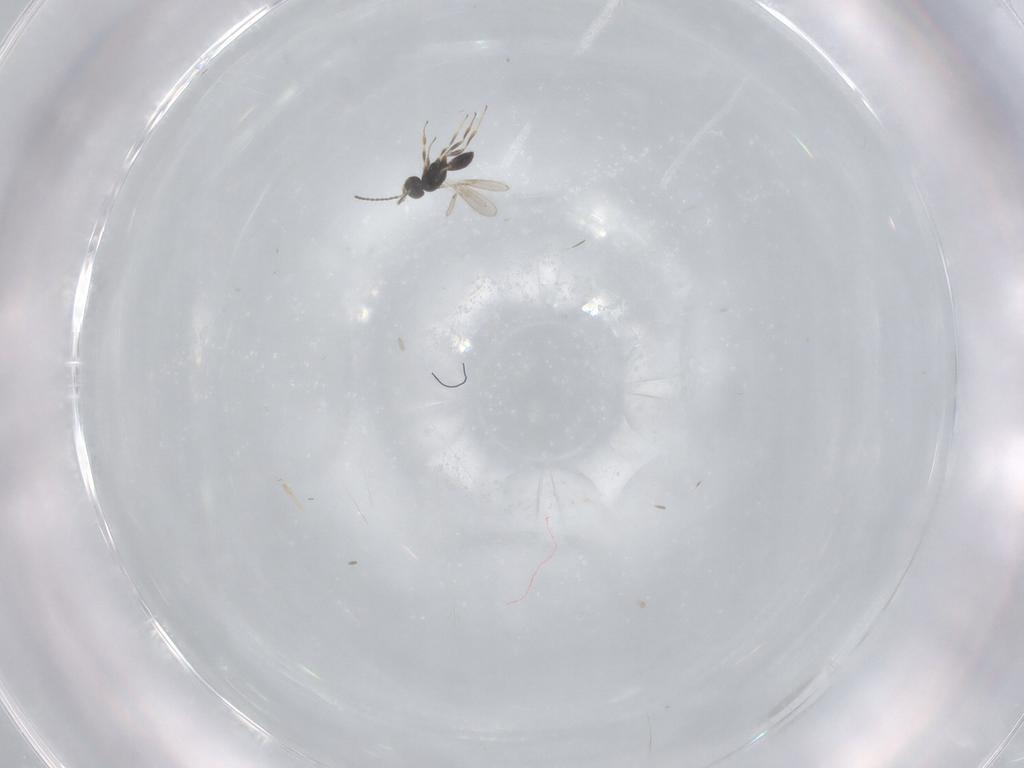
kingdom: Animalia
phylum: Arthropoda
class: Insecta
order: Hymenoptera
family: Scelionidae
